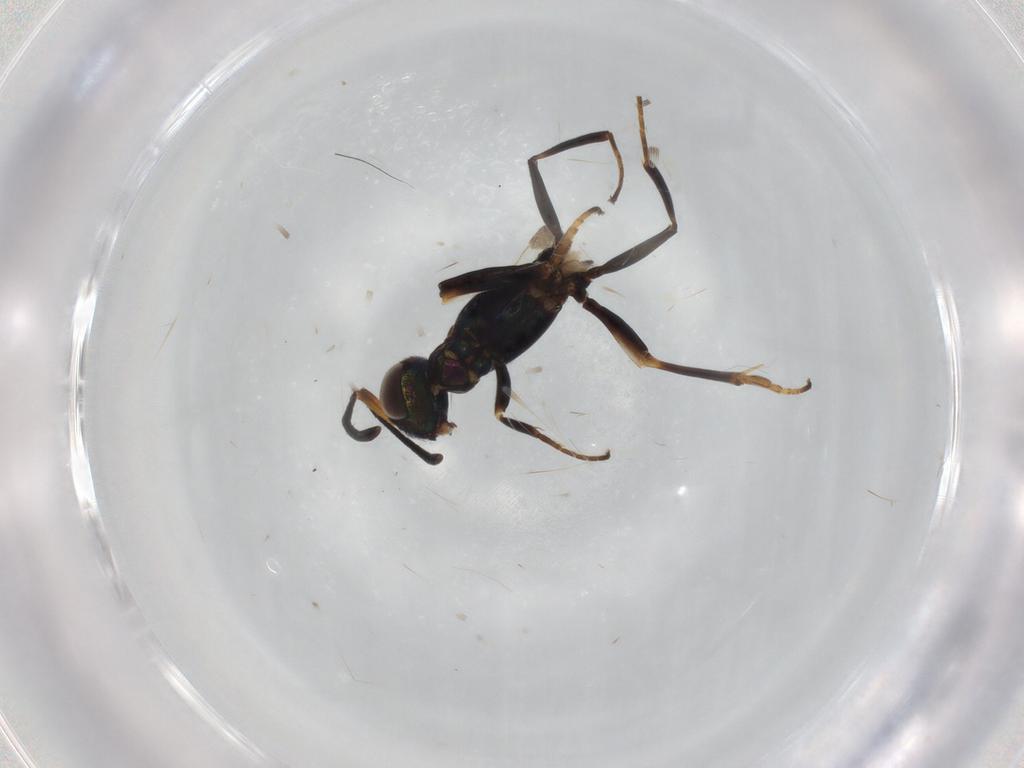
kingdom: Animalia
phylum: Arthropoda
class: Insecta
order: Hymenoptera
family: Eupelmidae
